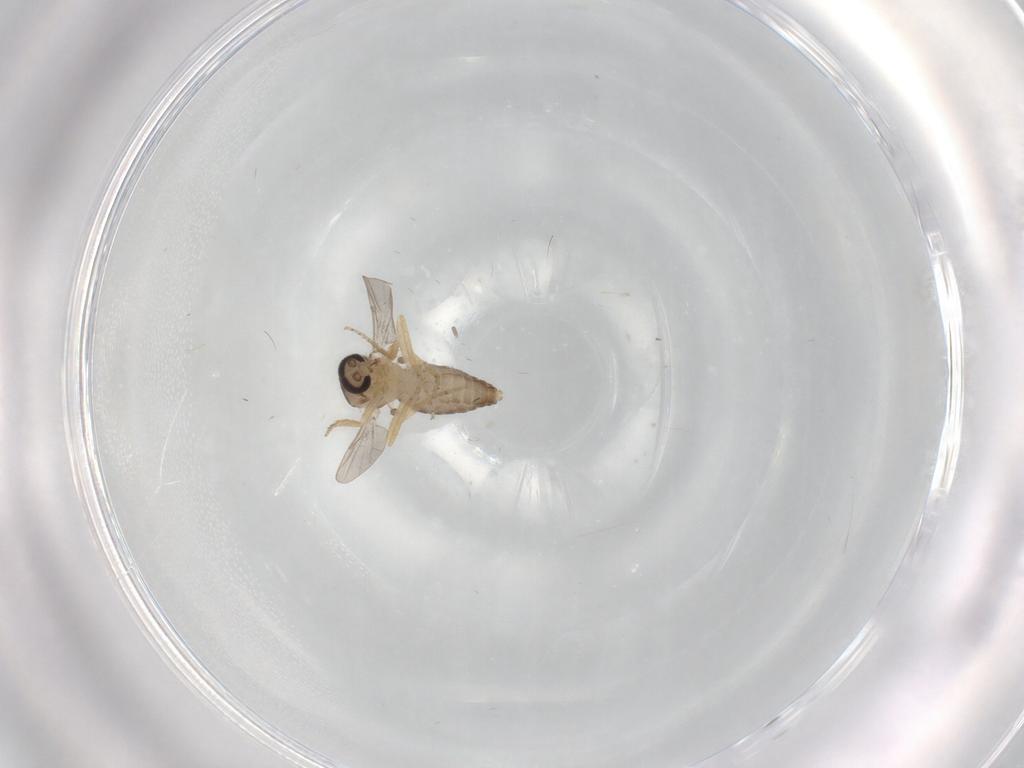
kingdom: Animalia
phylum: Arthropoda
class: Insecta
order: Diptera
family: Ceratopogonidae
